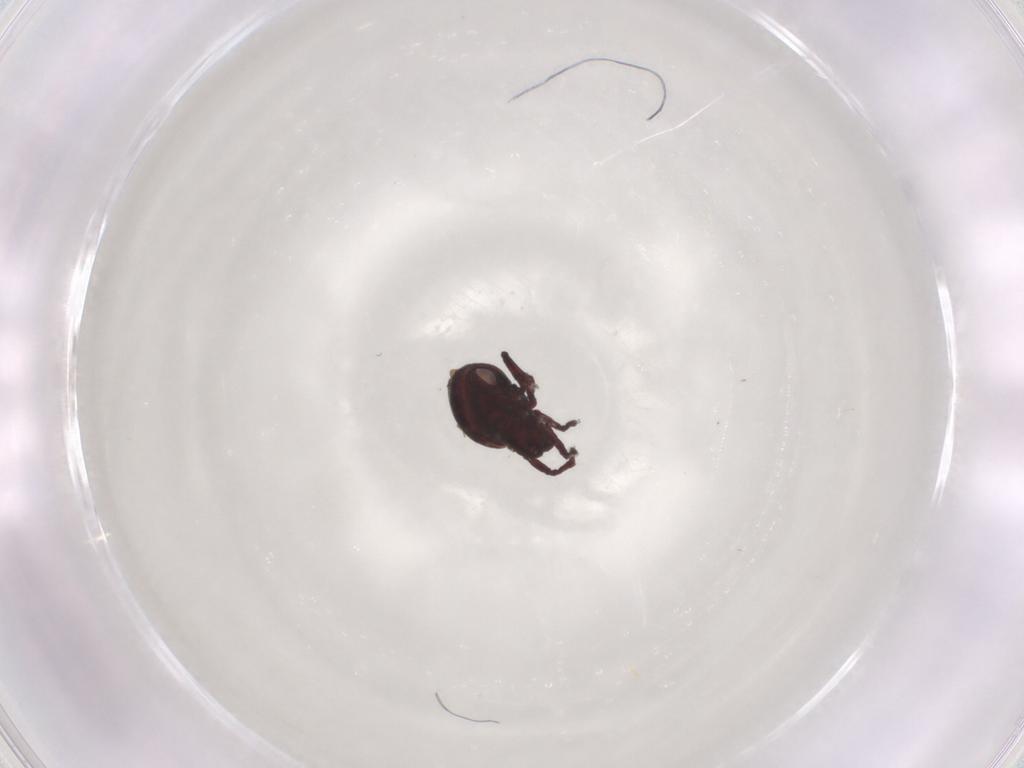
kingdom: Animalia
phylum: Arthropoda
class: Arachnida
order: Sarcoptiformes
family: Scheloribatidae
